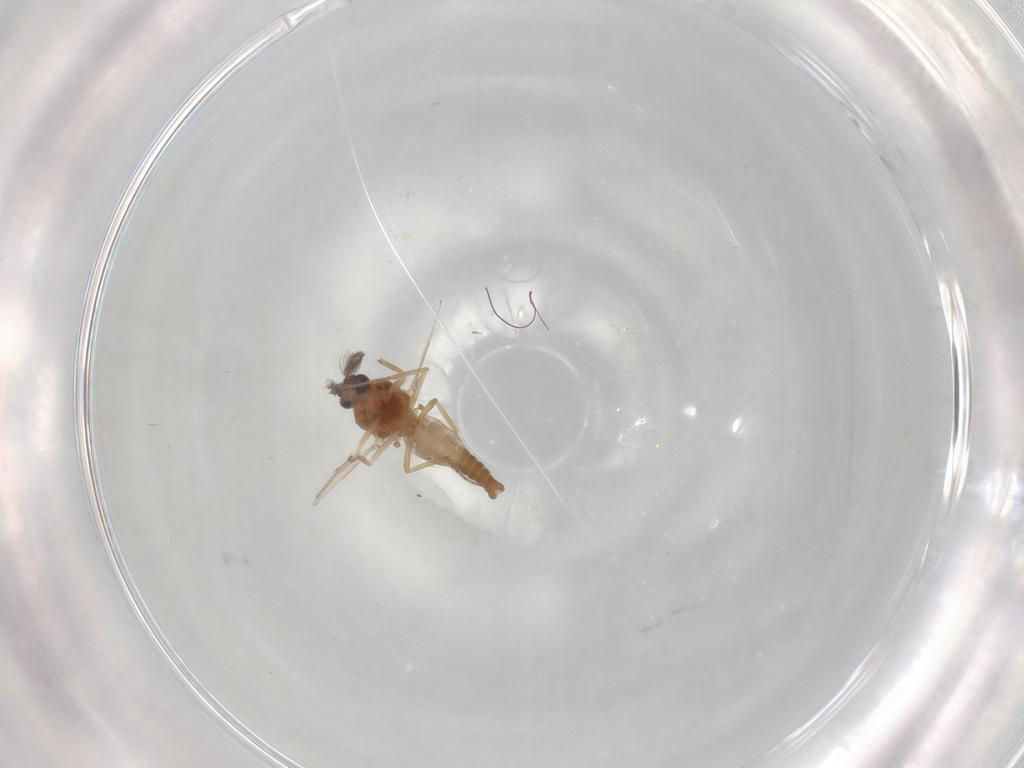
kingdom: Animalia
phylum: Arthropoda
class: Insecta
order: Diptera
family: Ceratopogonidae
